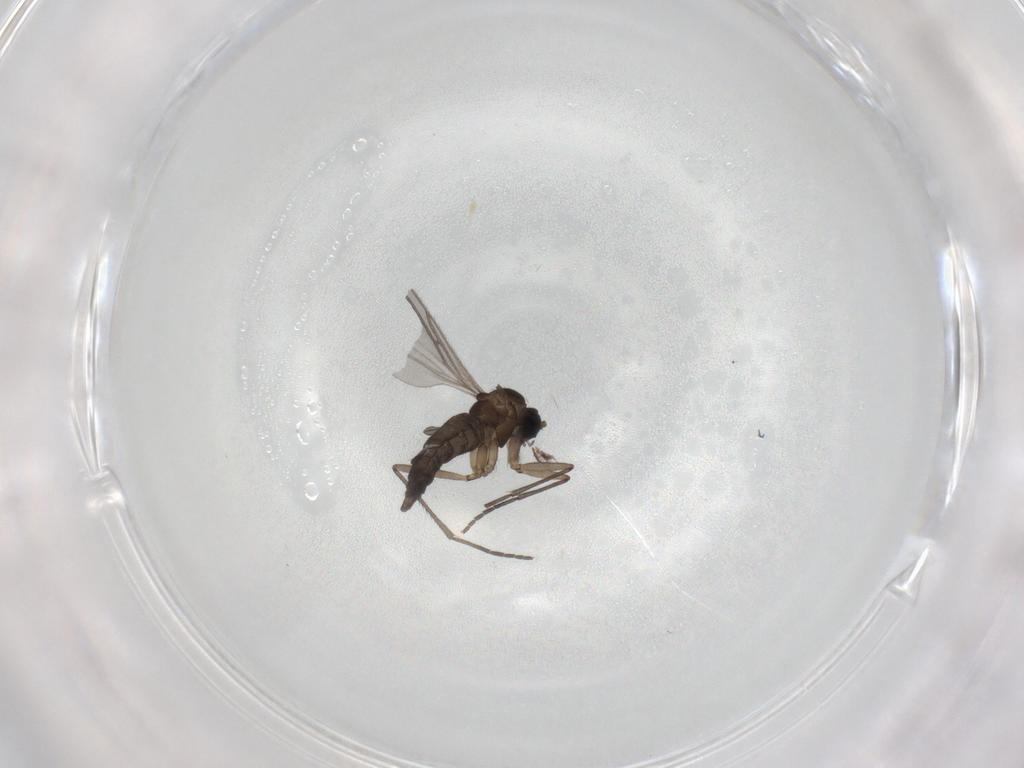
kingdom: Animalia
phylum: Arthropoda
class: Insecta
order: Diptera
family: Sciaridae
